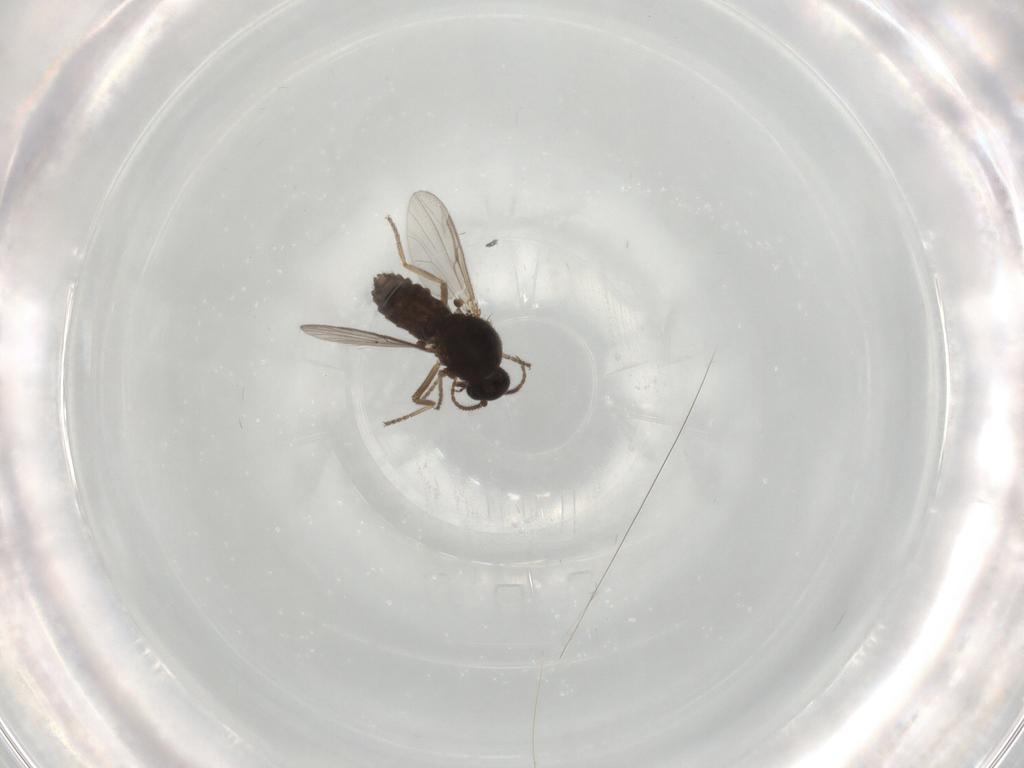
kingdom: Animalia
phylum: Arthropoda
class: Insecta
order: Diptera
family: Ceratopogonidae
